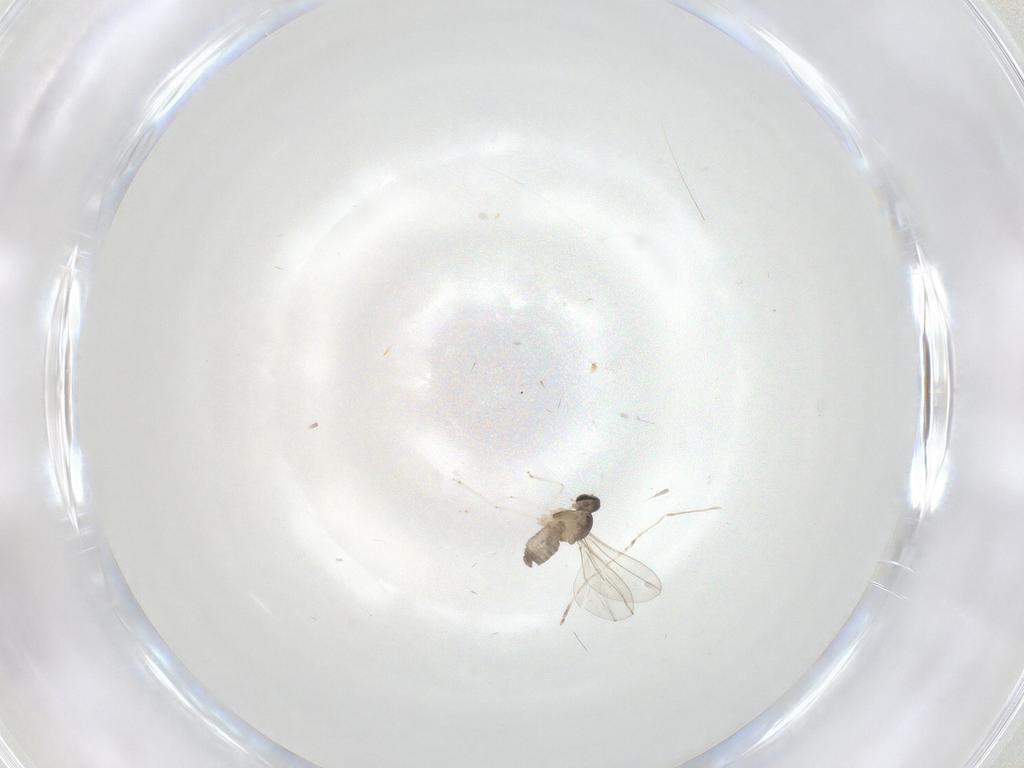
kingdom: Animalia
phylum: Arthropoda
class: Insecta
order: Diptera
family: Cecidomyiidae
